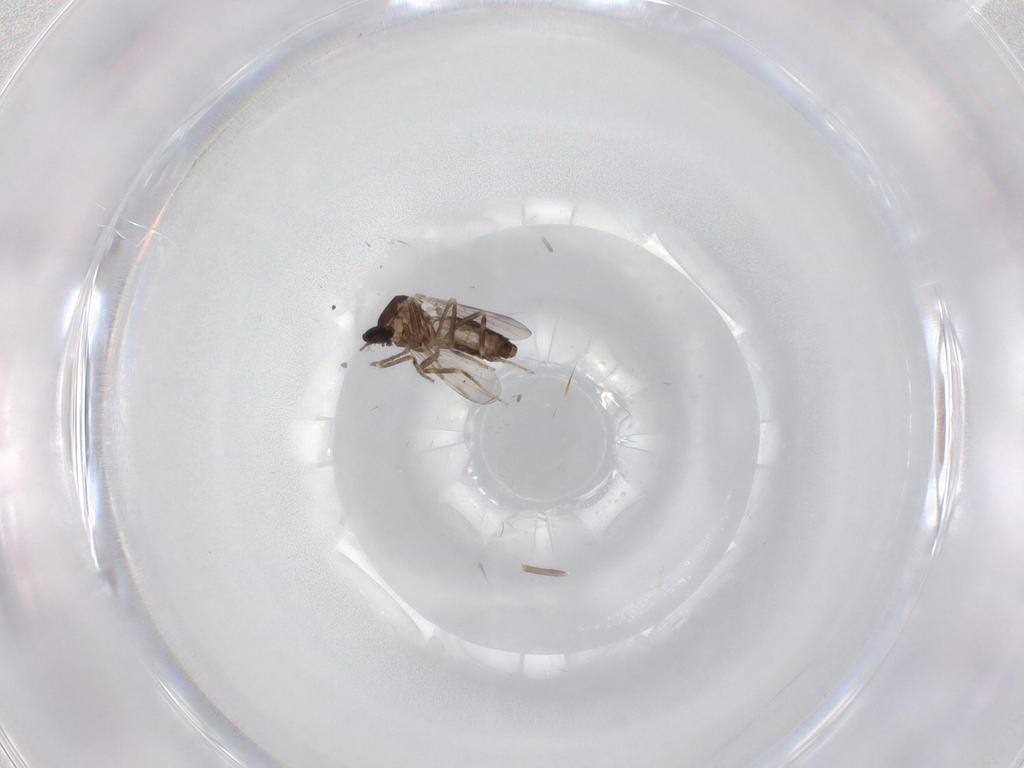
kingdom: Animalia
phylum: Arthropoda
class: Insecta
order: Diptera
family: Ceratopogonidae
